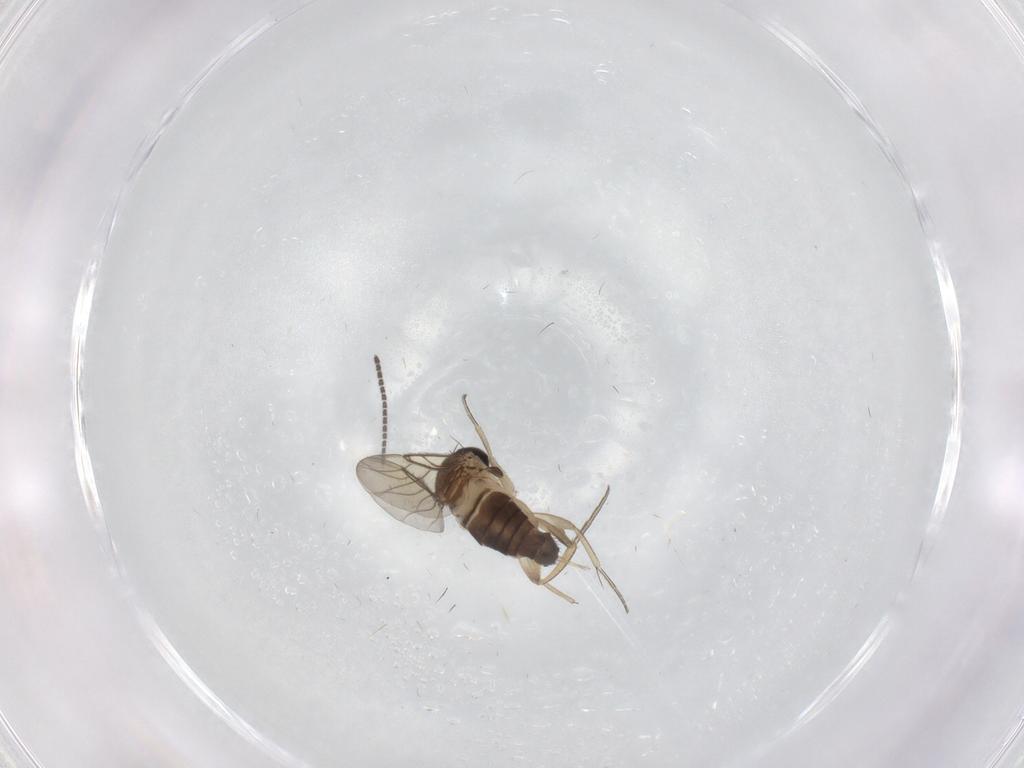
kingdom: Animalia
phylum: Arthropoda
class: Insecta
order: Diptera
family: Phoridae
